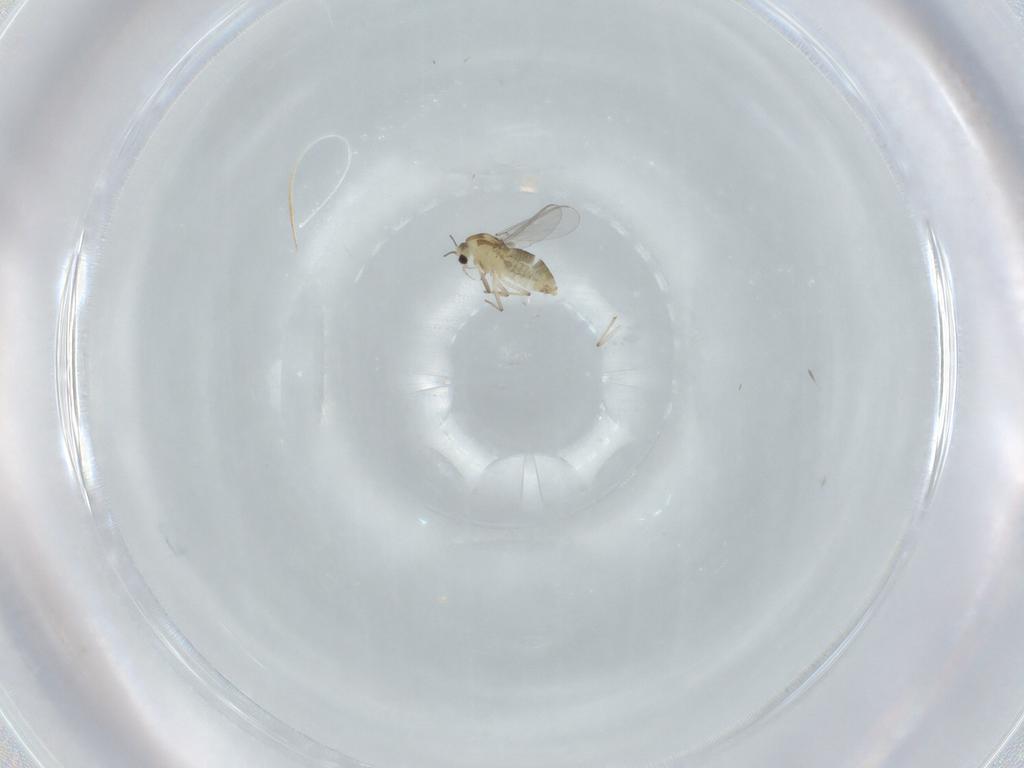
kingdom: Animalia
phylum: Arthropoda
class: Insecta
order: Diptera
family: Chironomidae
